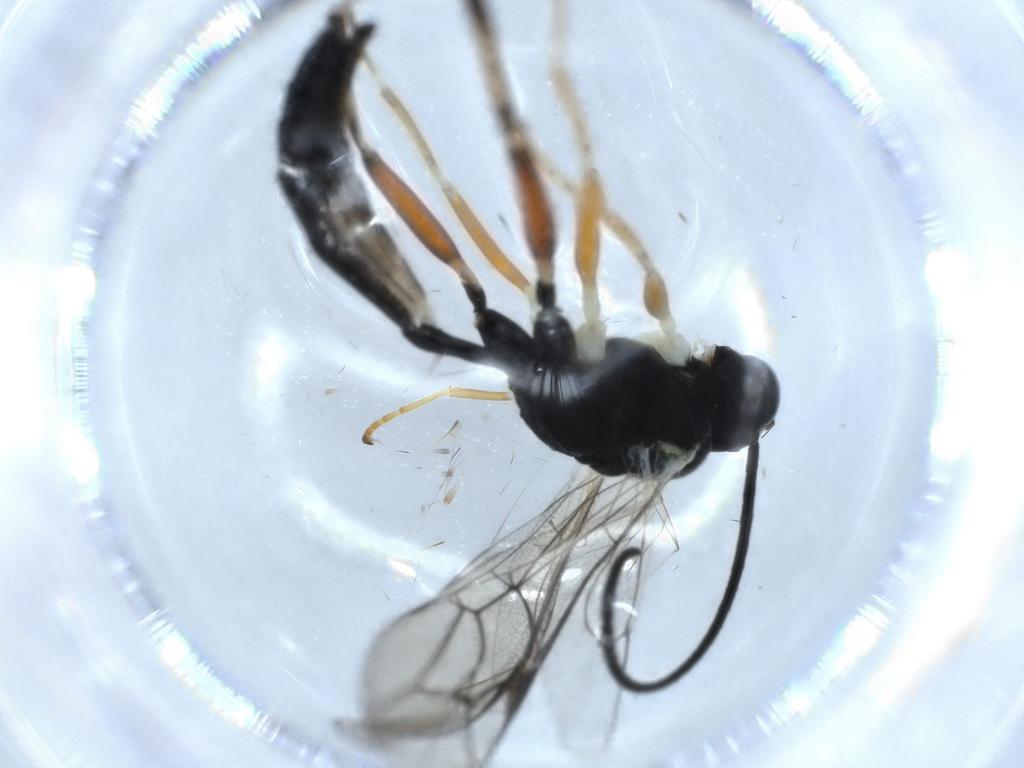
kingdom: Animalia
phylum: Arthropoda
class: Insecta
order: Hymenoptera
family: Ichneumonidae
